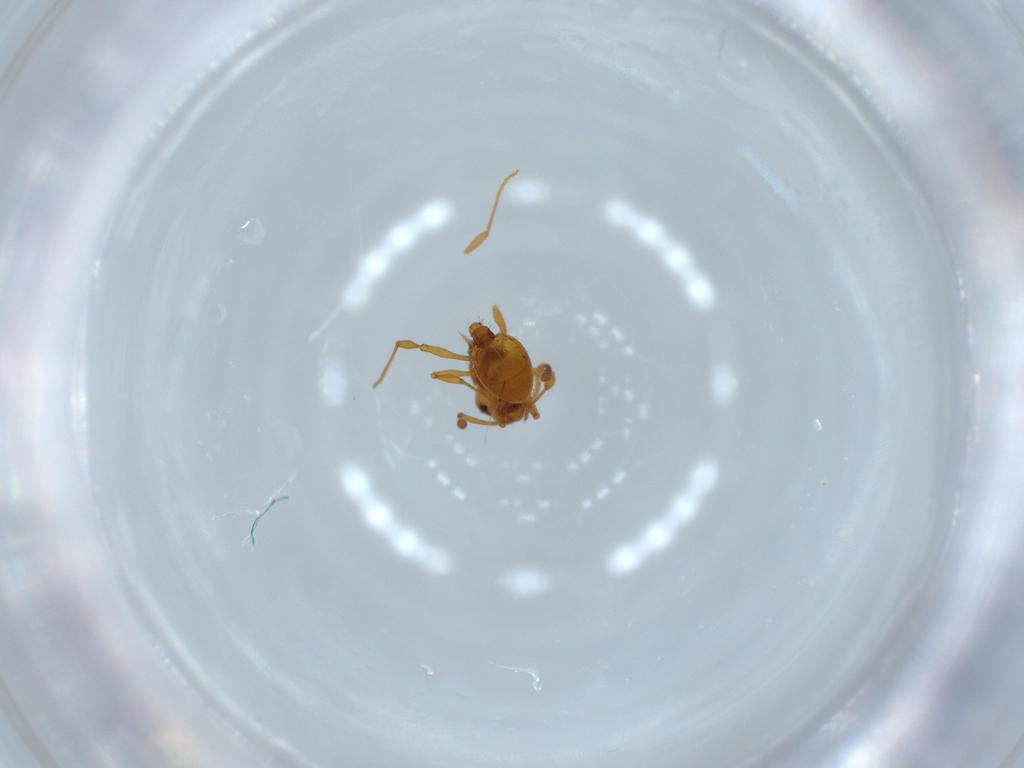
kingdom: Animalia
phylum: Arthropoda
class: Insecta
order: Hymenoptera
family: Formicidae
